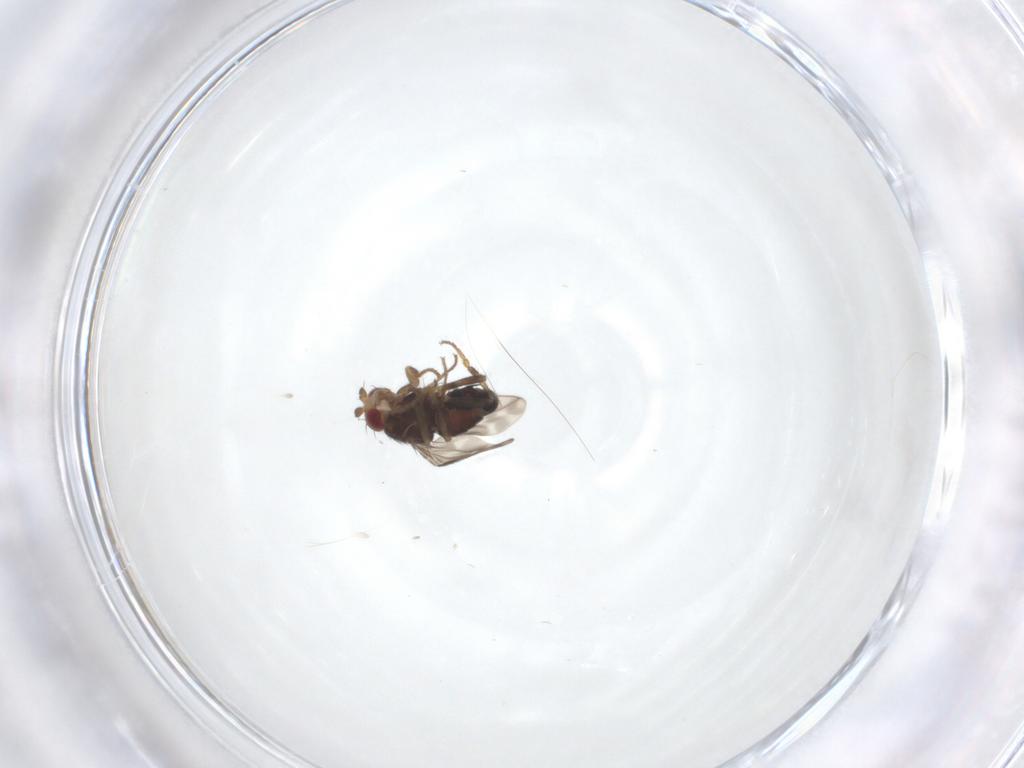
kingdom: Animalia
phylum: Arthropoda
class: Insecta
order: Diptera
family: Sphaeroceridae
